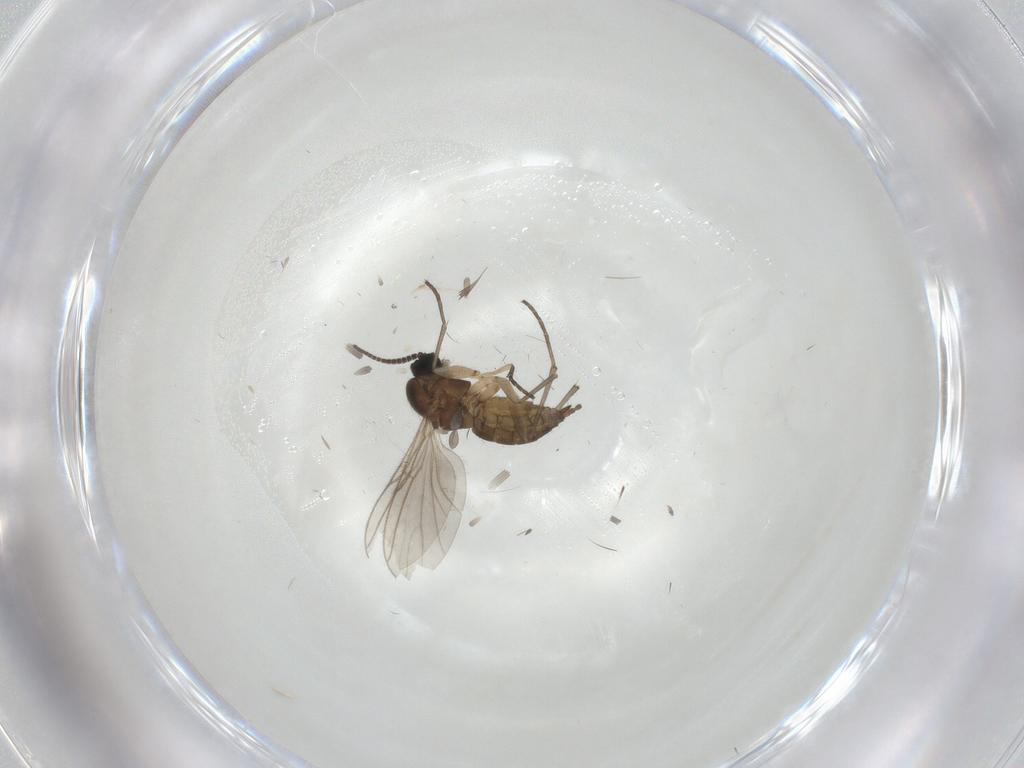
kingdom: Animalia
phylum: Arthropoda
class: Insecta
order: Diptera
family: Sciaridae
